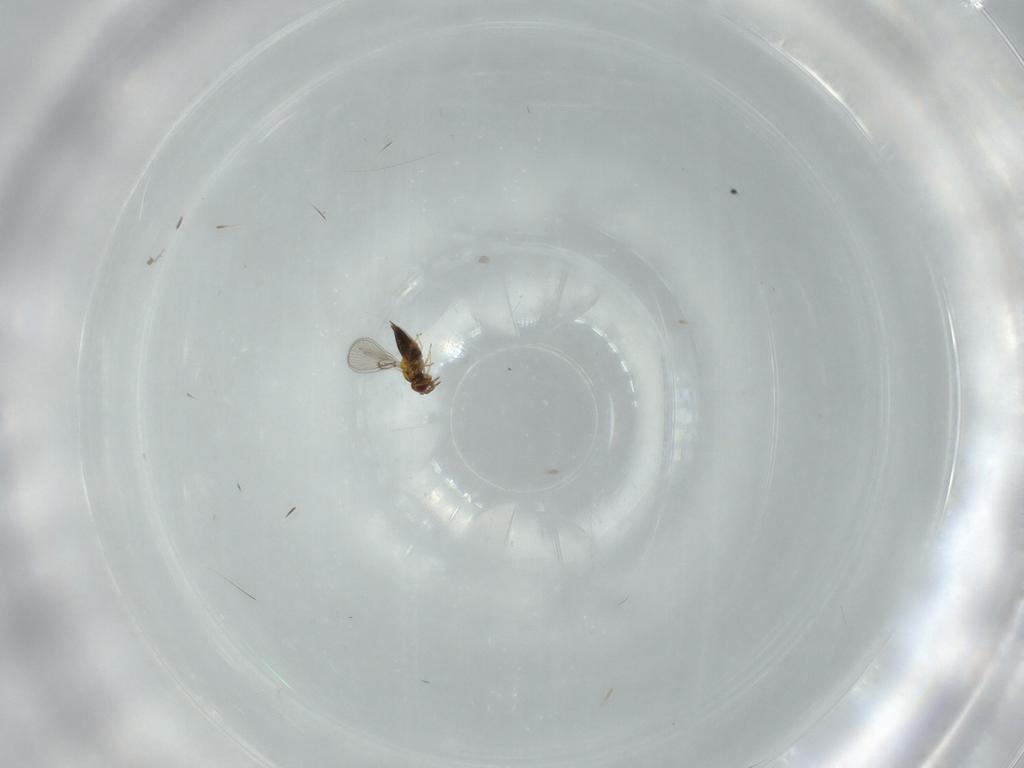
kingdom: Animalia
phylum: Arthropoda
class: Insecta
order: Hymenoptera
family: Trichogrammatidae
